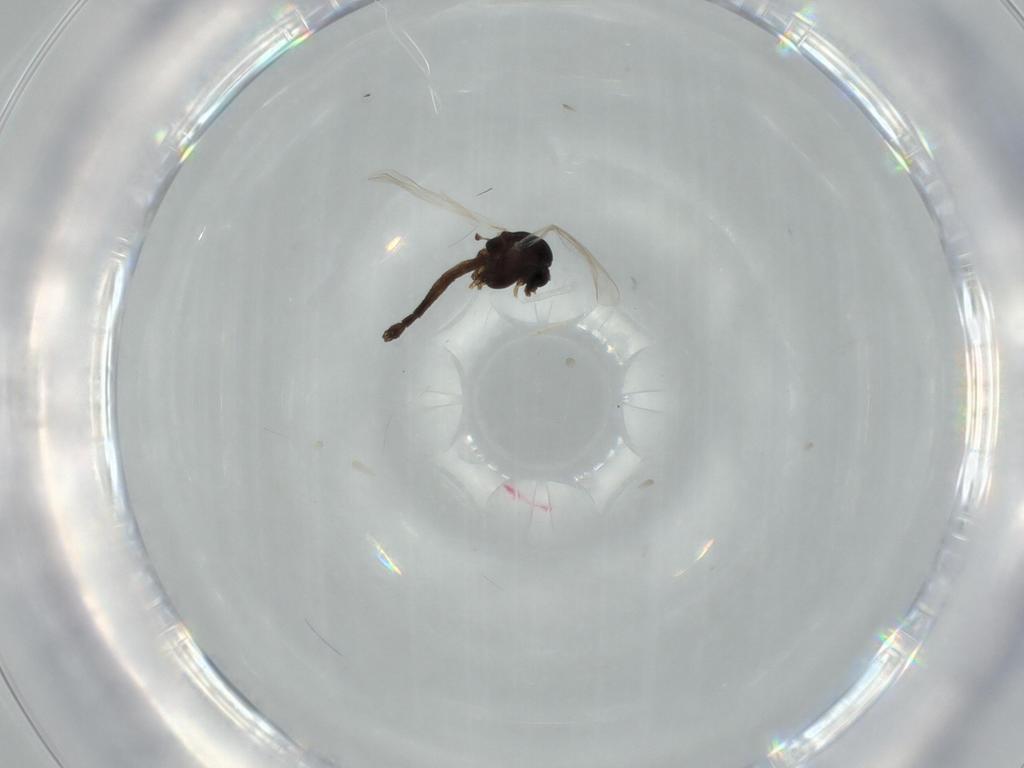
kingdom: Animalia
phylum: Arthropoda
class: Insecta
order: Diptera
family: Chironomidae
